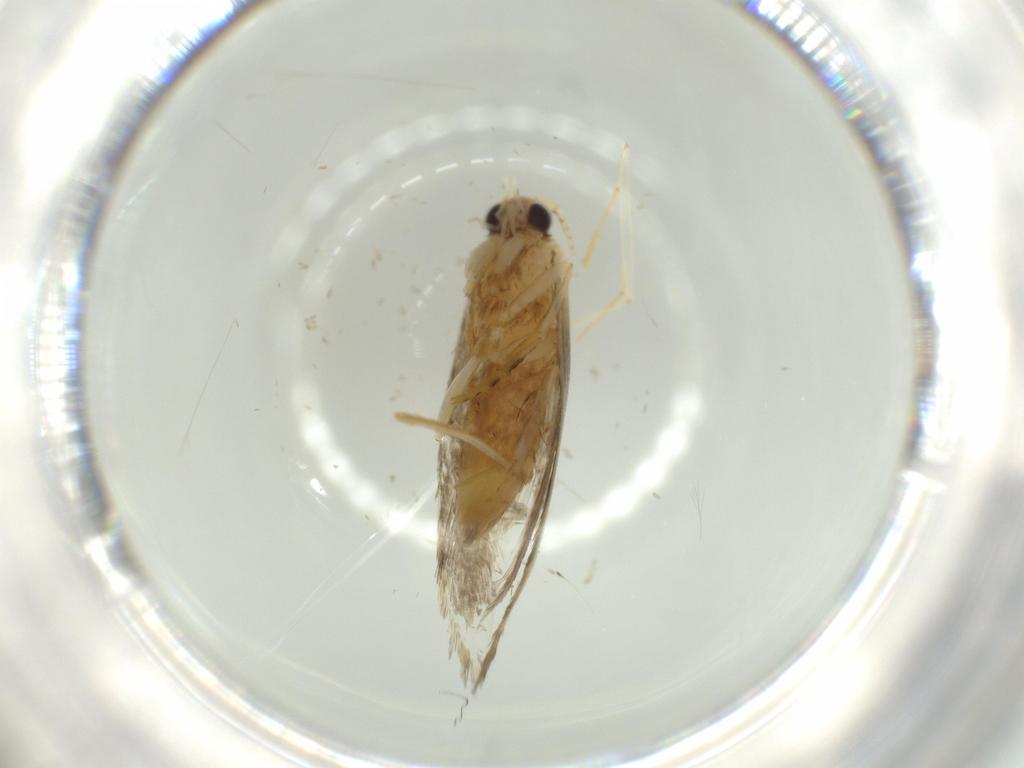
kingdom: Animalia
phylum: Arthropoda
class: Insecta
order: Lepidoptera
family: Tineidae
